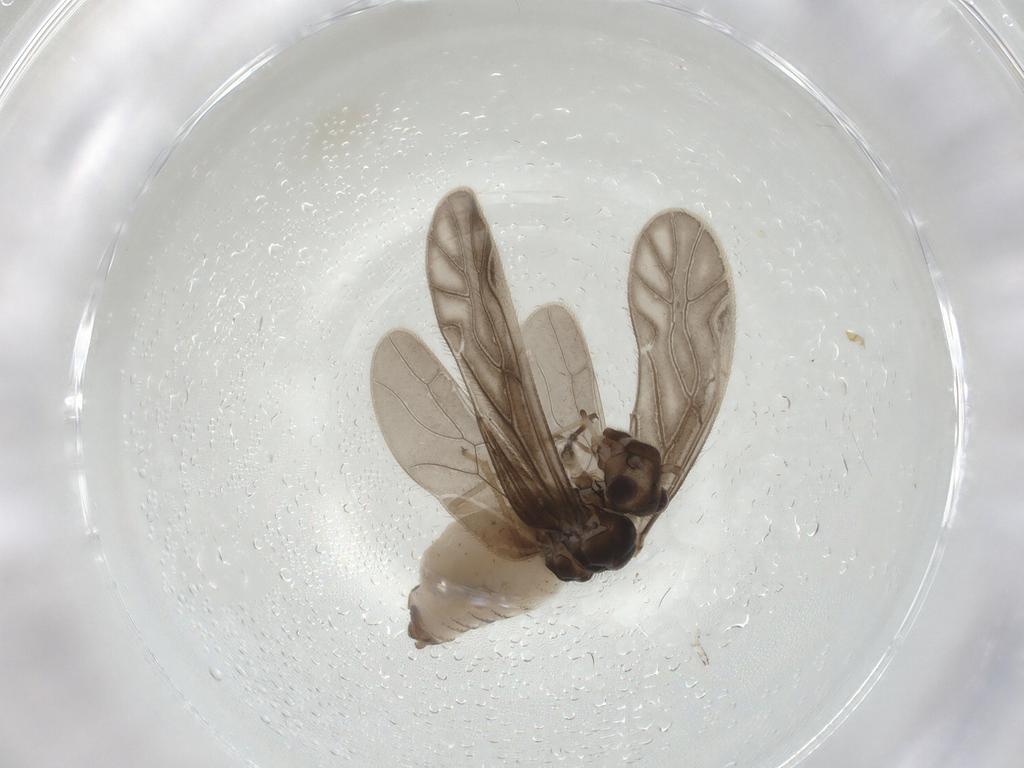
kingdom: Animalia
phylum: Arthropoda
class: Insecta
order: Psocodea
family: Caeciliusidae
